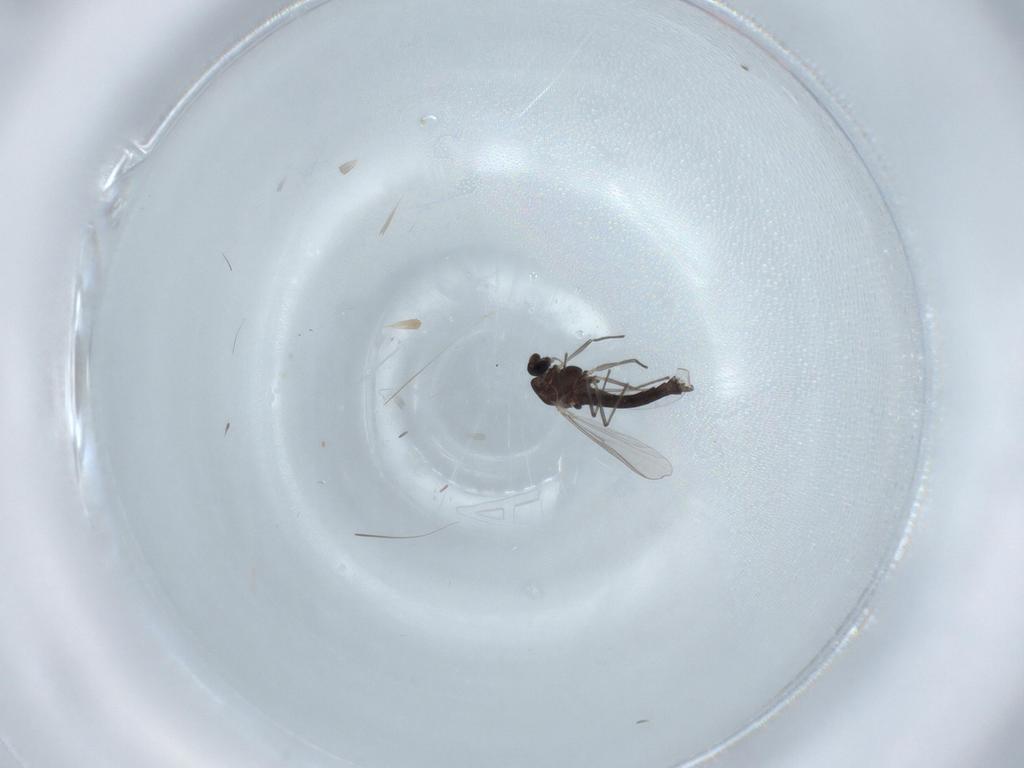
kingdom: Animalia
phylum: Arthropoda
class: Insecta
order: Diptera
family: Chironomidae
